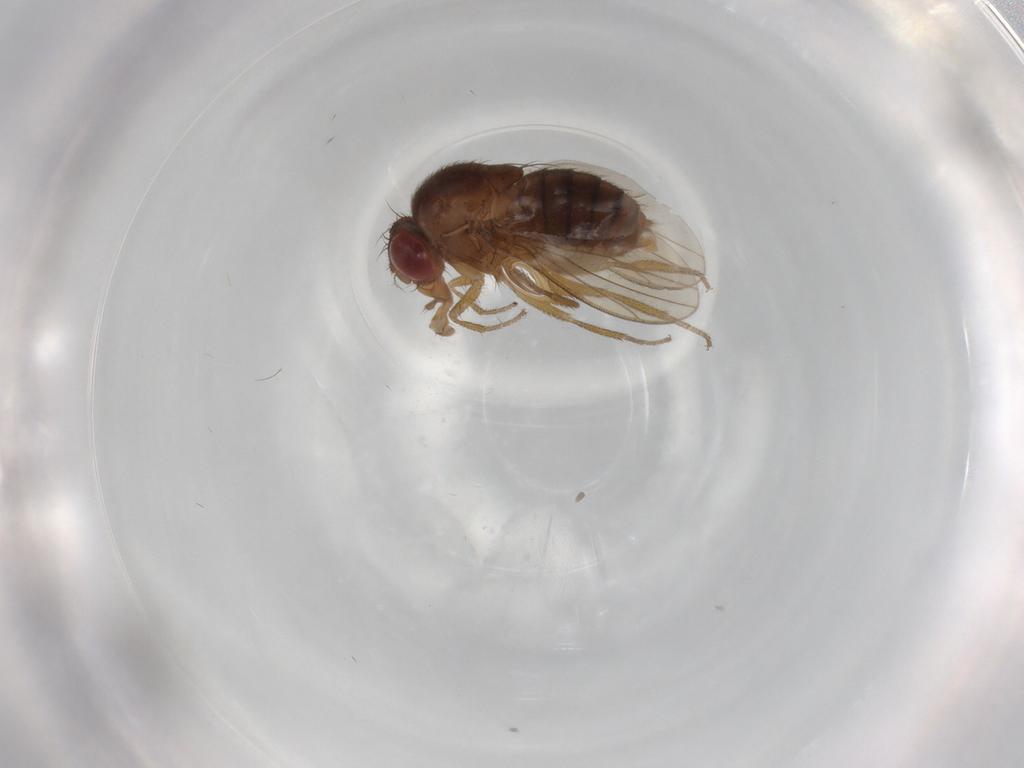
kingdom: Animalia
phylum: Arthropoda
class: Insecta
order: Diptera
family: Drosophilidae
